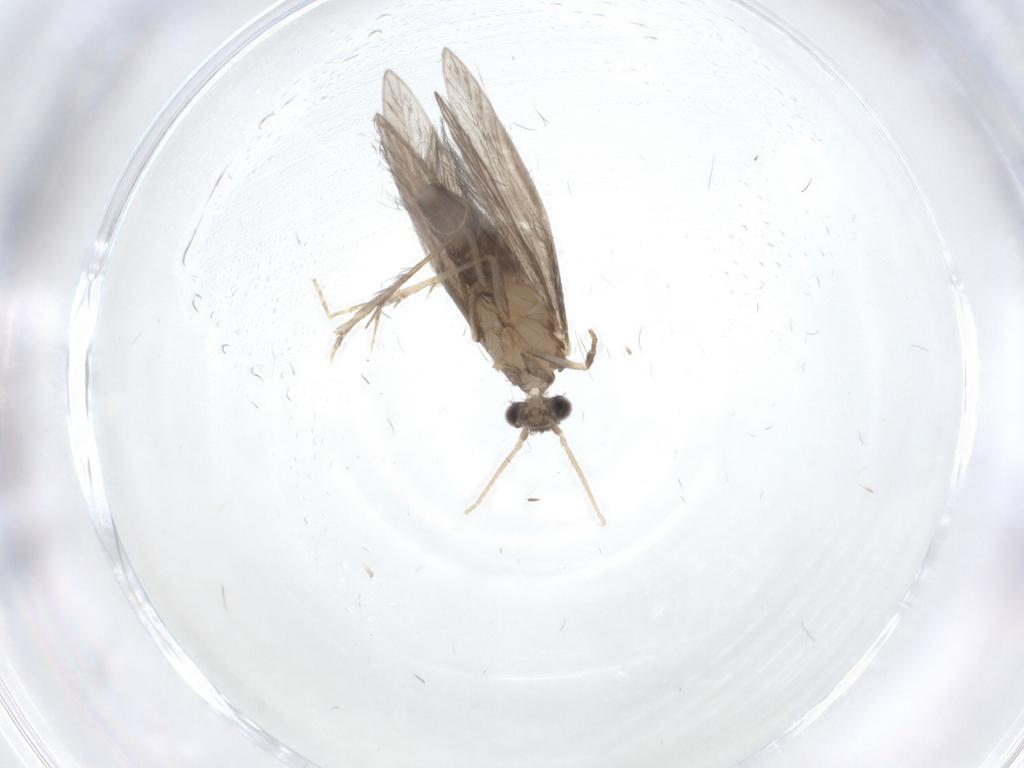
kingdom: Animalia
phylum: Arthropoda
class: Insecta
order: Trichoptera
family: Hydroptilidae
